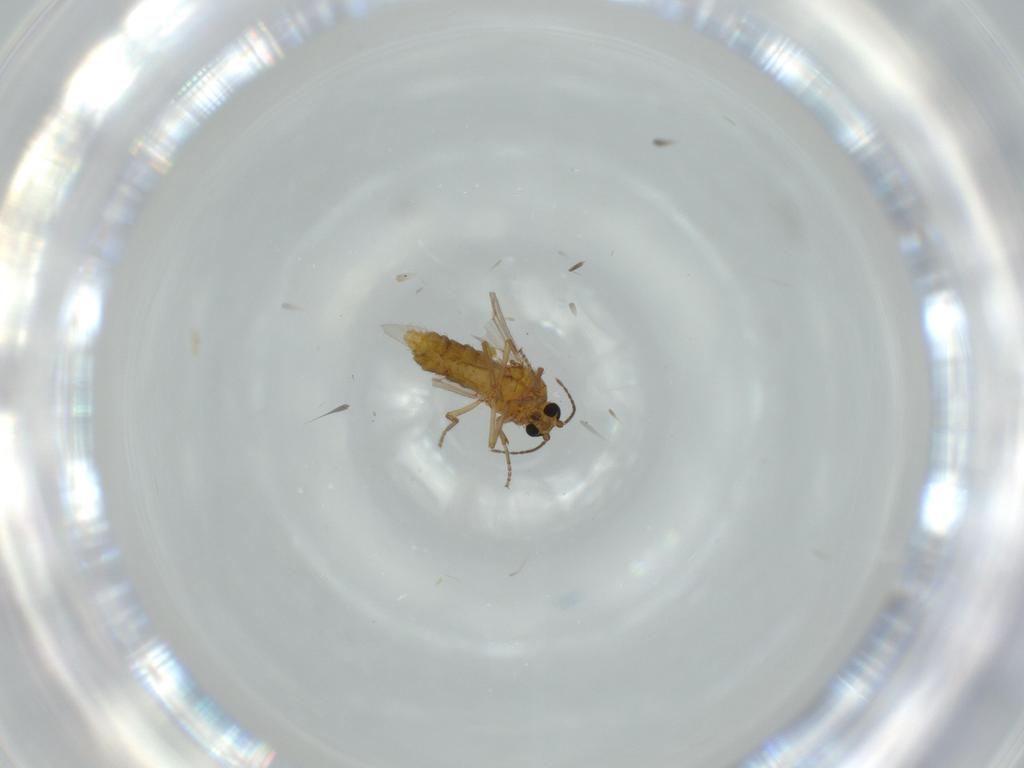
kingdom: Animalia
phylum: Arthropoda
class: Insecta
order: Diptera
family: Ceratopogonidae
